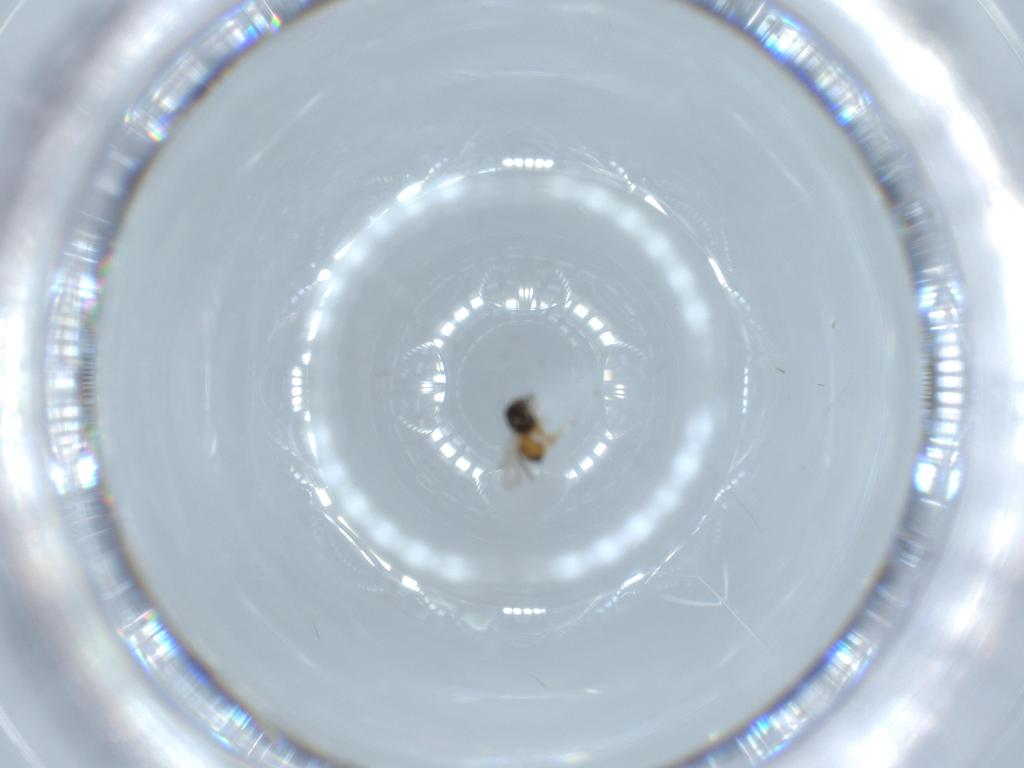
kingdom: Animalia
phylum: Arthropoda
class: Insecta
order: Hymenoptera
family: Scelionidae
